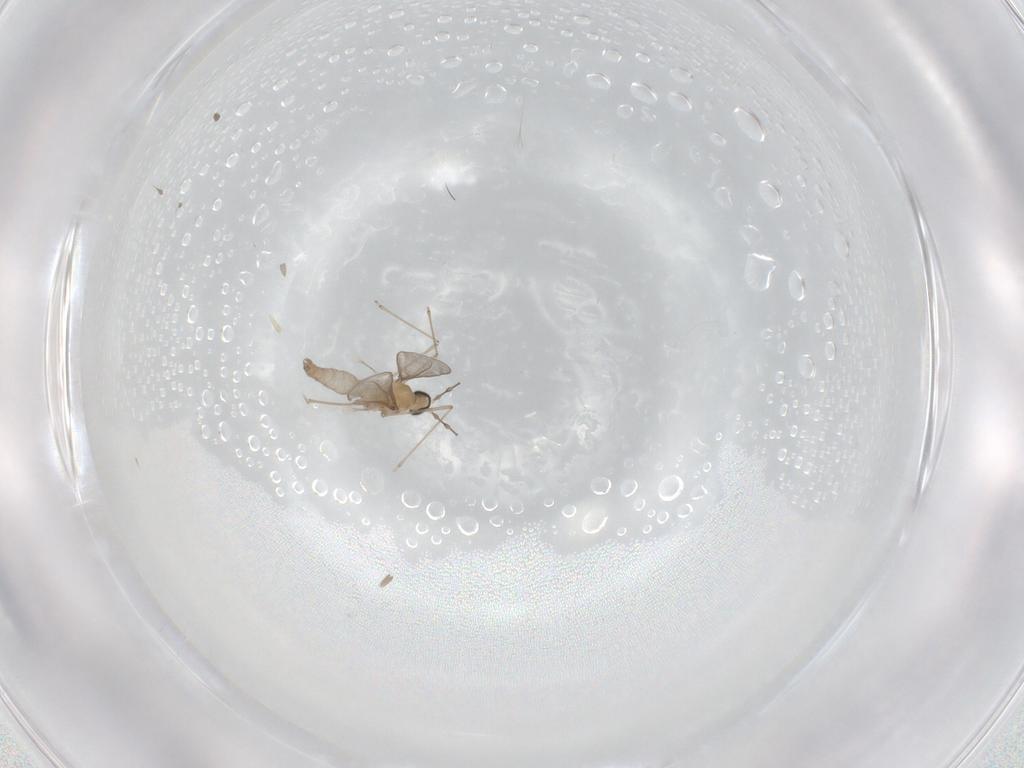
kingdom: Animalia
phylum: Arthropoda
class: Insecta
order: Diptera
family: Cecidomyiidae
